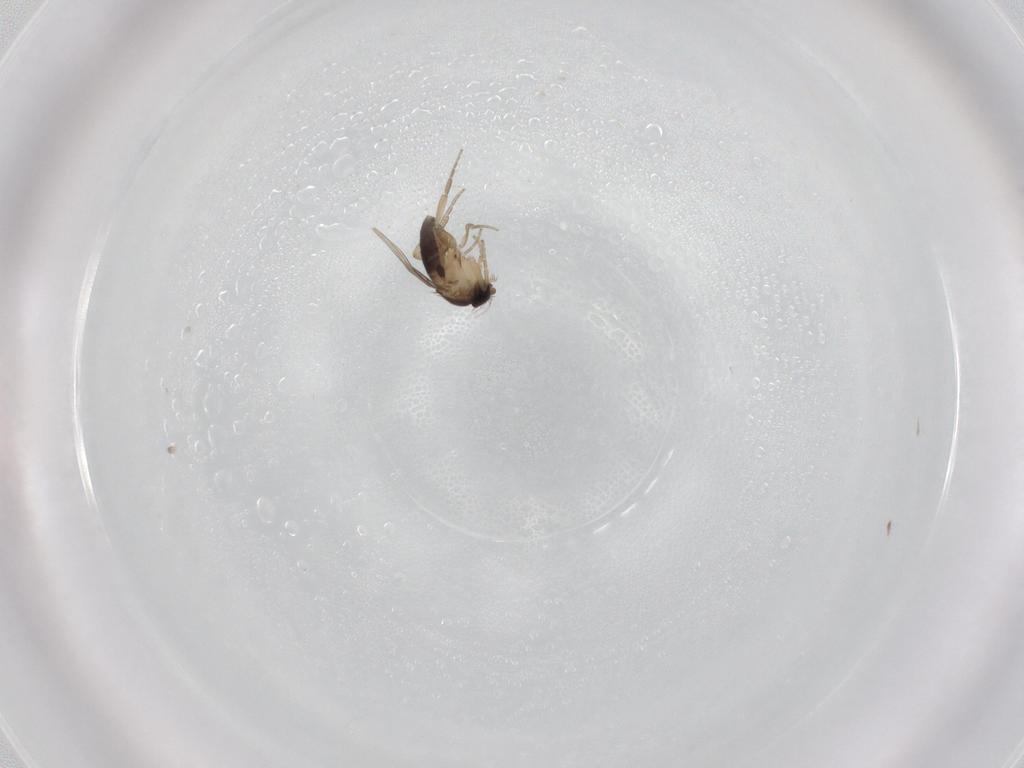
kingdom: Animalia
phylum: Arthropoda
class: Insecta
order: Diptera
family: Phoridae
